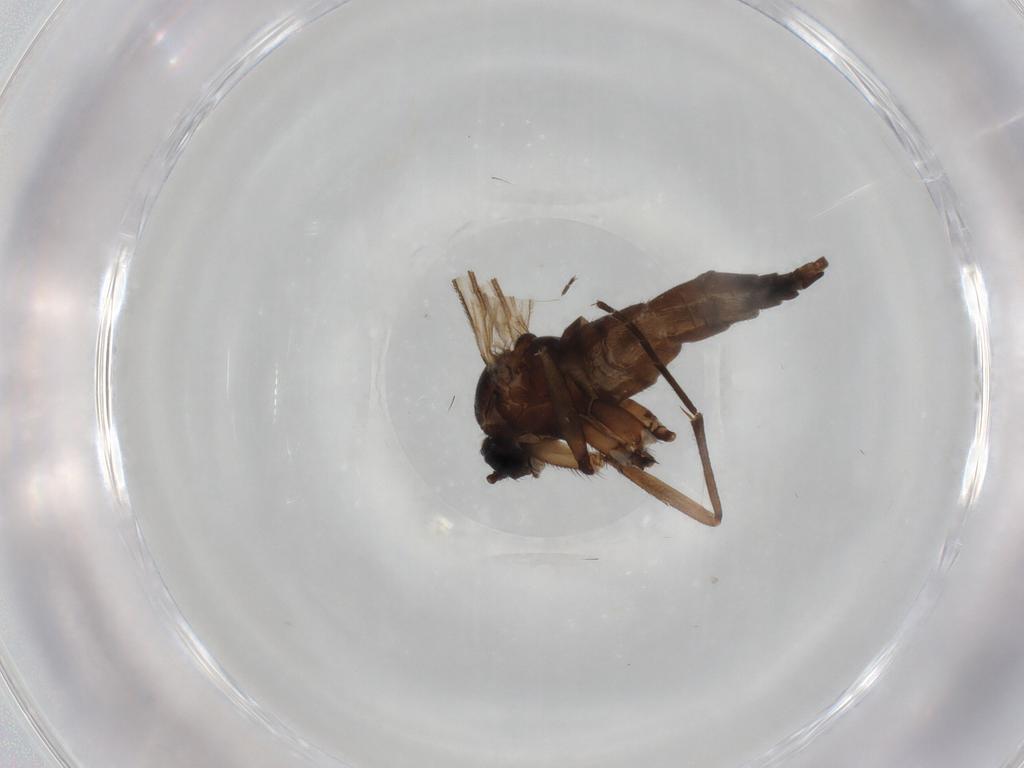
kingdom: Animalia
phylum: Arthropoda
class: Insecta
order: Diptera
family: Sciaridae
